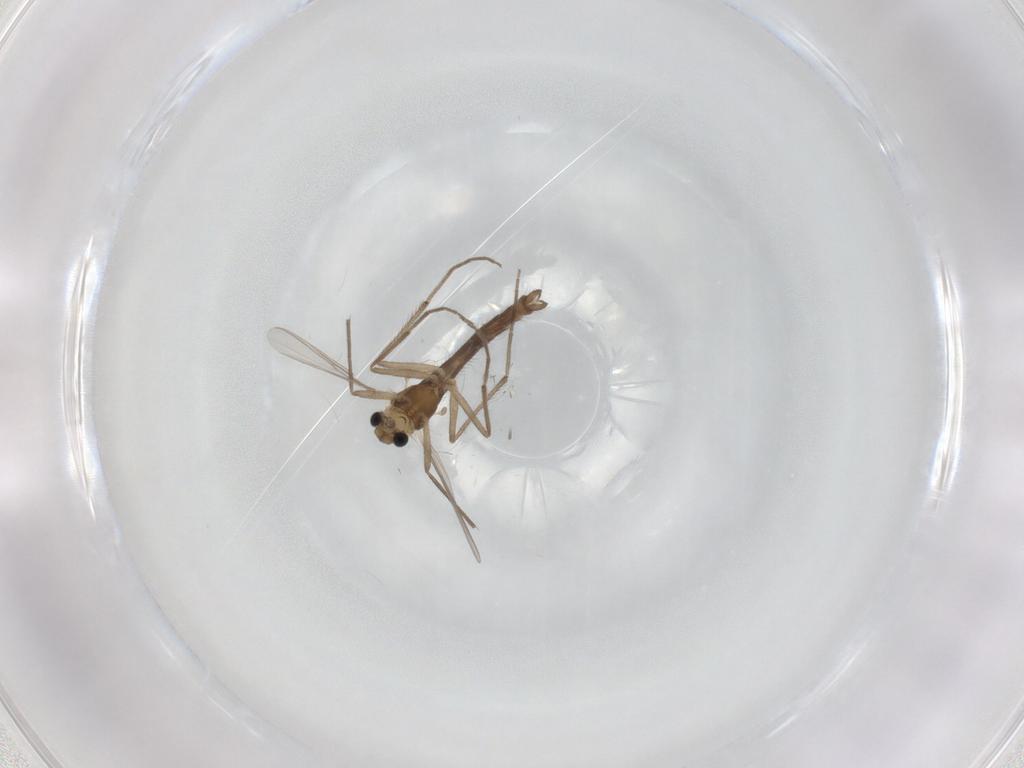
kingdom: Animalia
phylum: Arthropoda
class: Insecta
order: Diptera
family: Chironomidae
